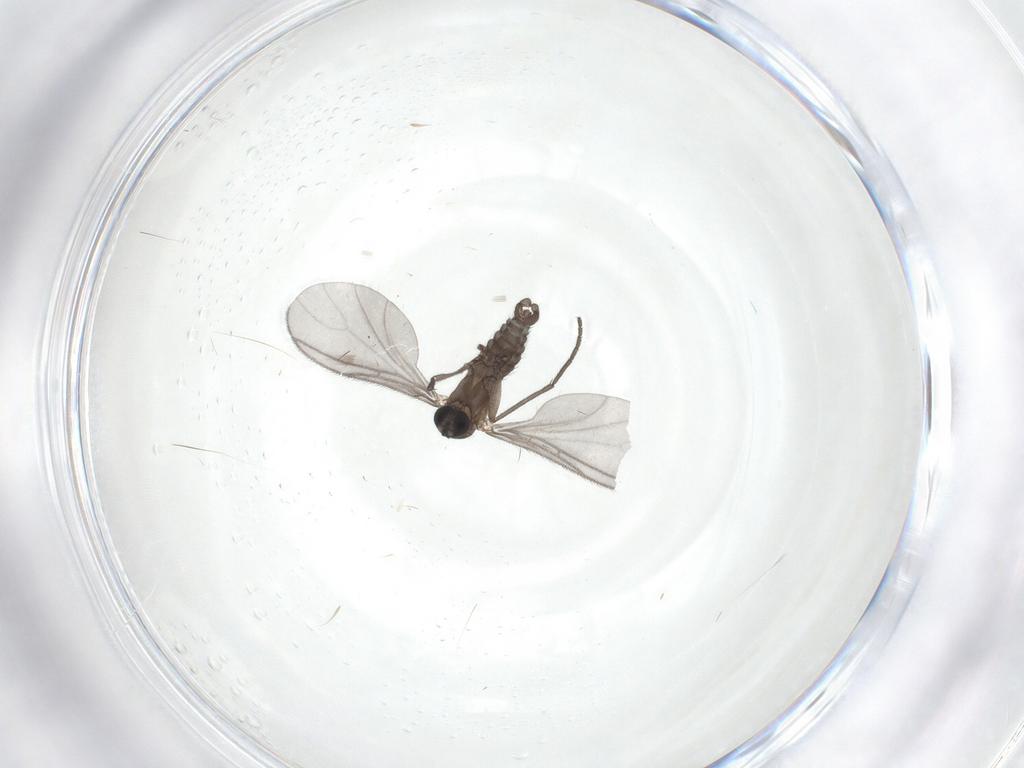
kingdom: Animalia
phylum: Arthropoda
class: Insecta
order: Diptera
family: Sciaridae
